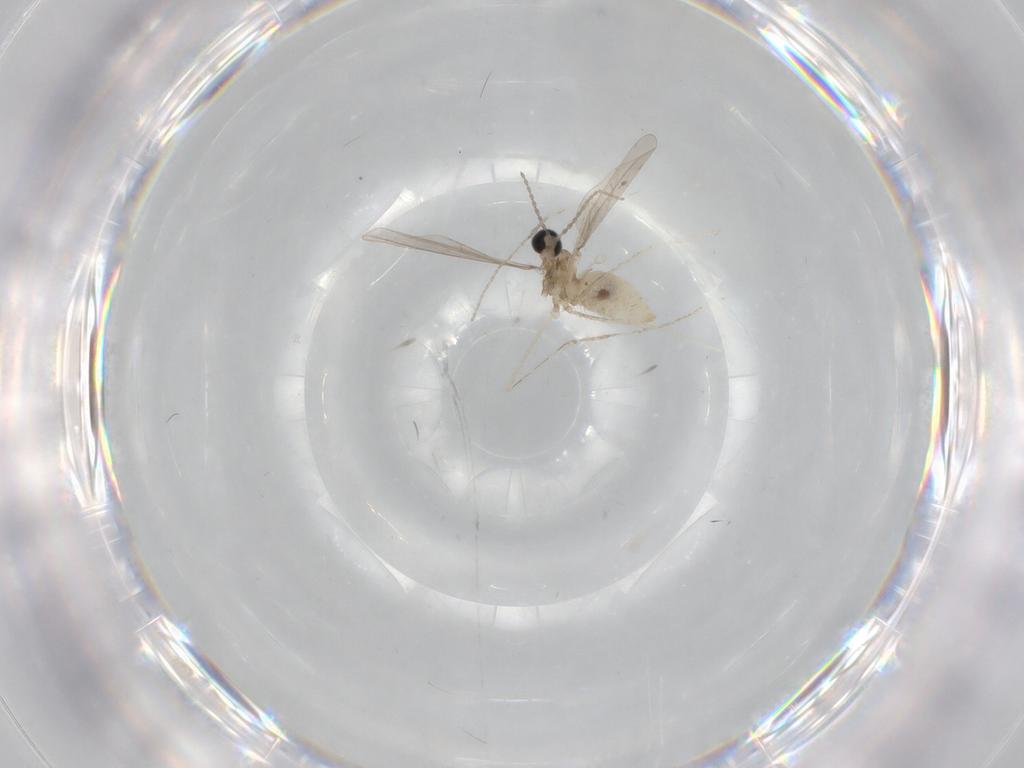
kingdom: Animalia
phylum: Arthropoda
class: Insecta
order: Diptera
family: Cecidomyiidae
